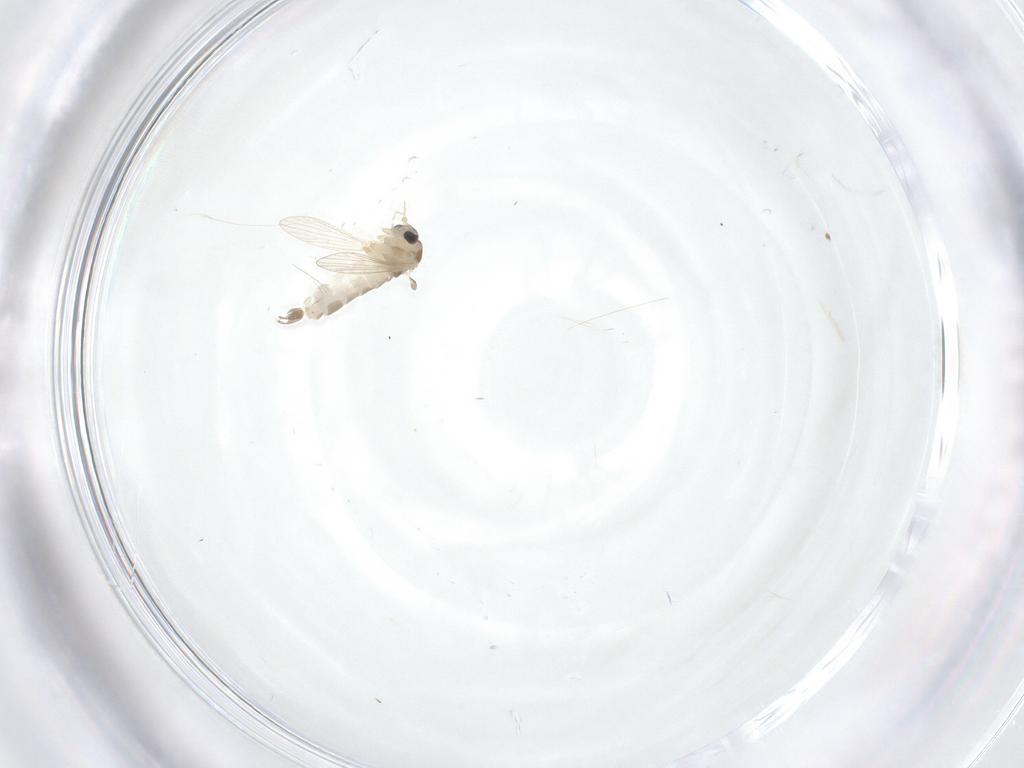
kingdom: Animalia
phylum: Arthropoda
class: Insecta
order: Diptera
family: Psychodidae
